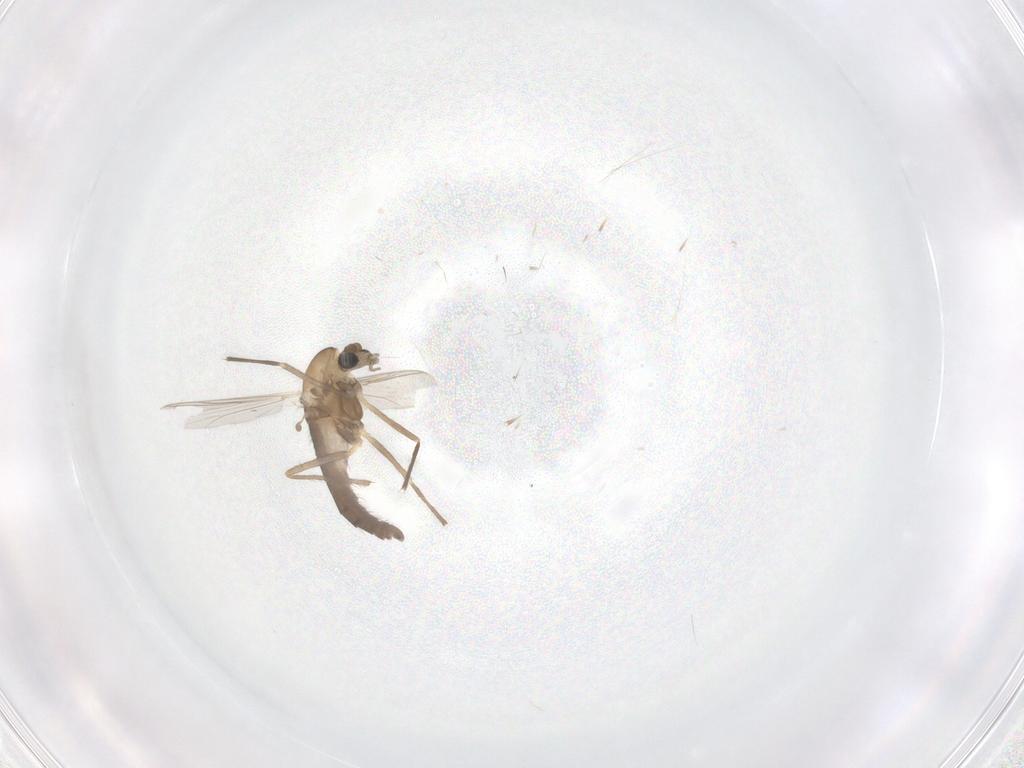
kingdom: Animalia
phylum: Arthropoda
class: Insecta
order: Diptera
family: Chironomidae
